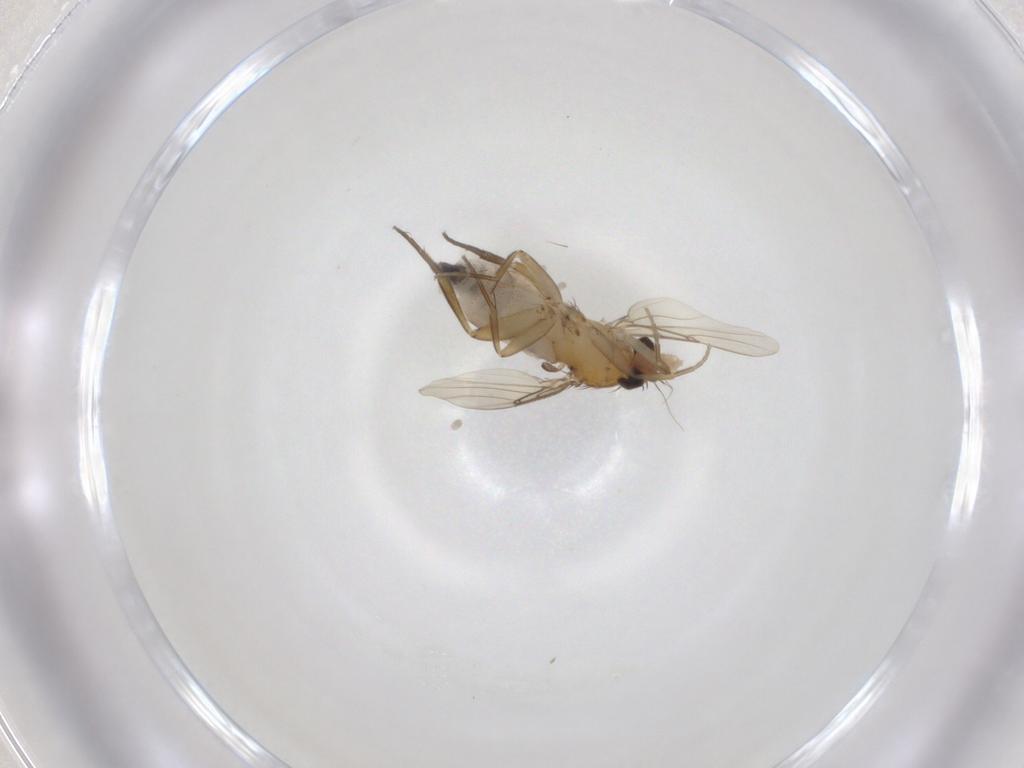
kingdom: Animalia
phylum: Arthropoda
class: Insecta
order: Diptera
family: Phoridae
